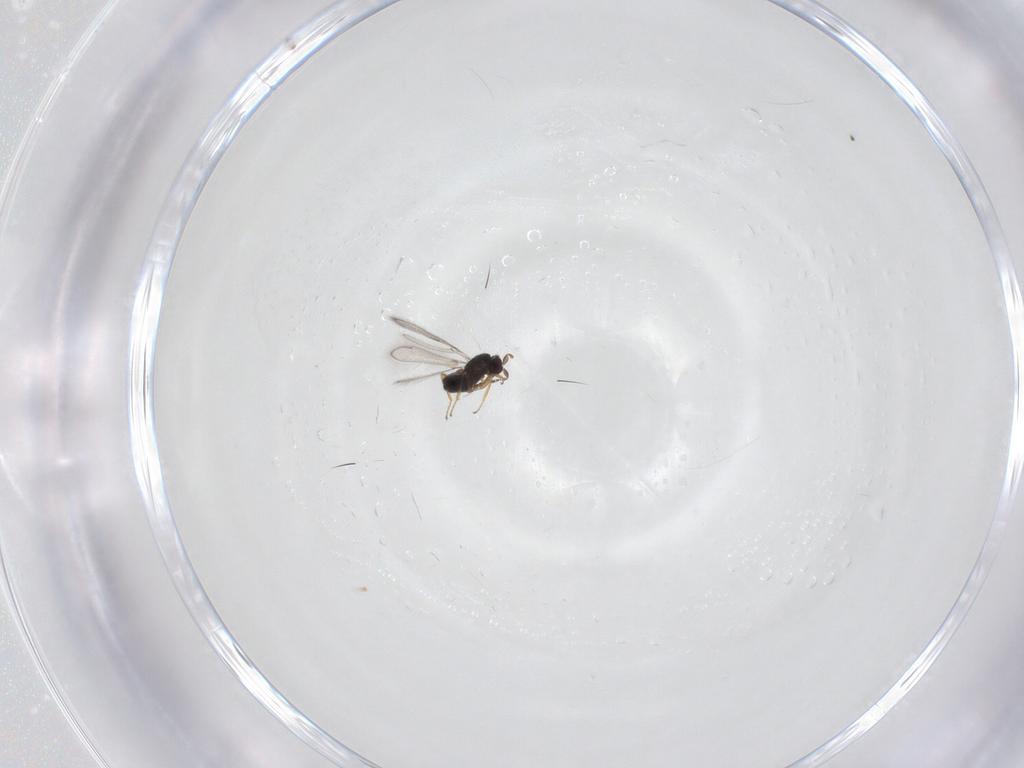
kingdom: Animalia
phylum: Arthropoda
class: Insecta
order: Hymenoptera
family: Mymaridae
